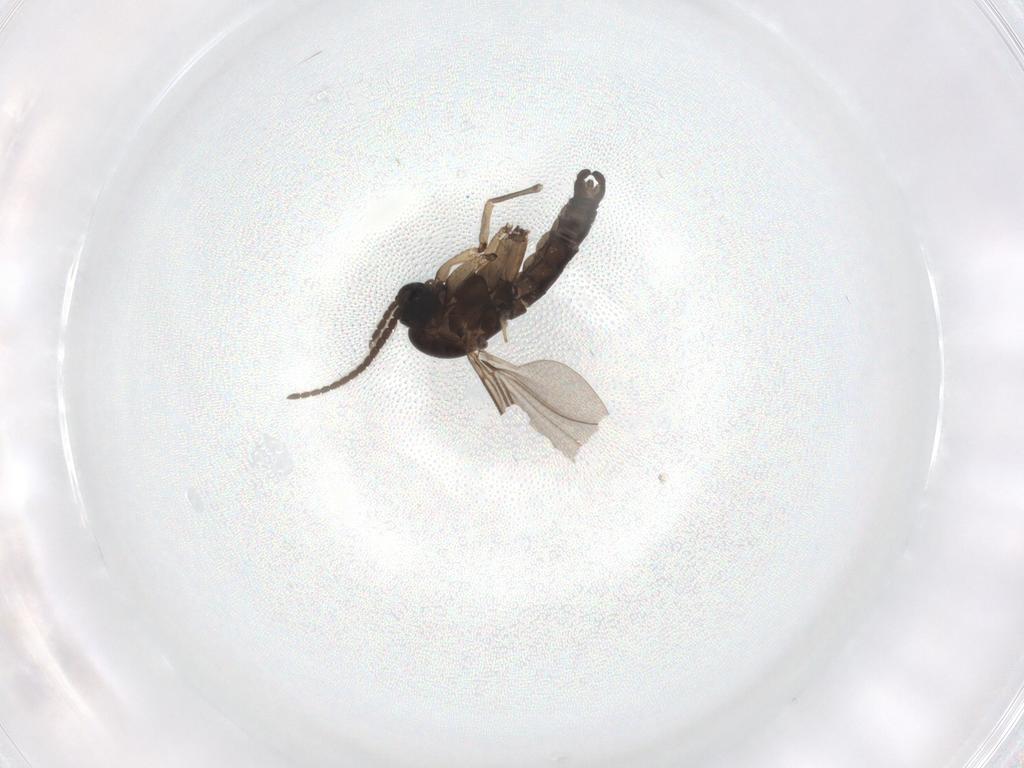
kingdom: Animalia
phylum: Arthropoda
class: Insecta
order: Diptera
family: Sciaridae
